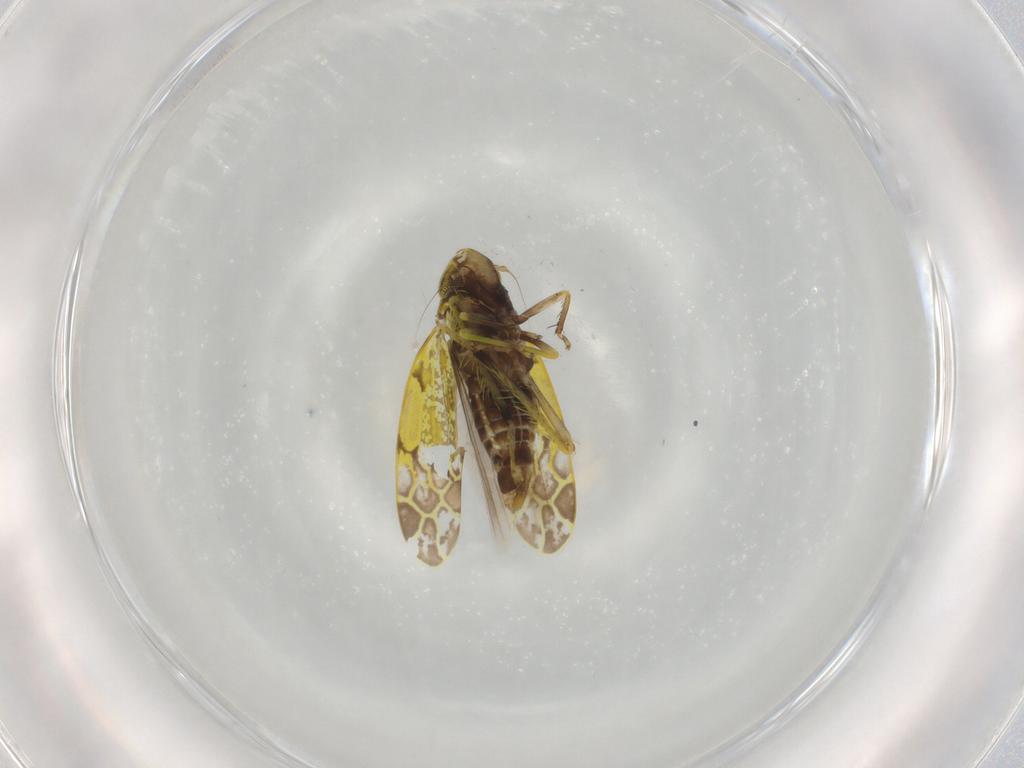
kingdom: Animalia
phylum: Arthropoda
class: Insecta
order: Hemiptera
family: Cicadellidae
